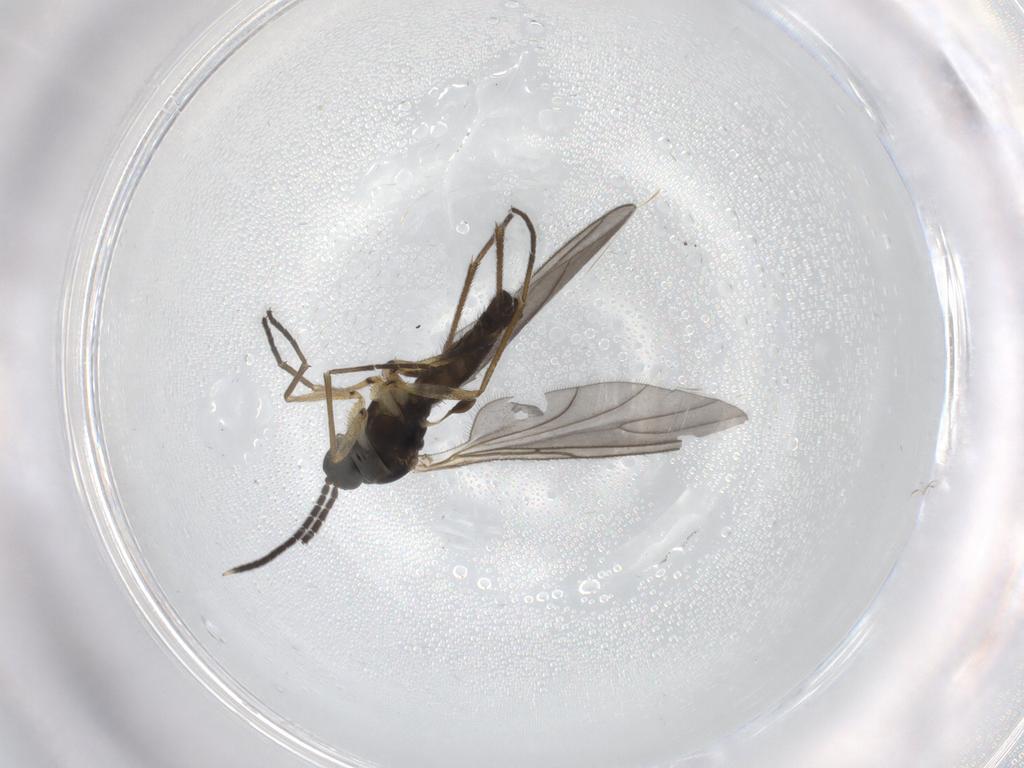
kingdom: Animalia
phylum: Arthropoda
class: Insecta
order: Diptera
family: Sciaridae
